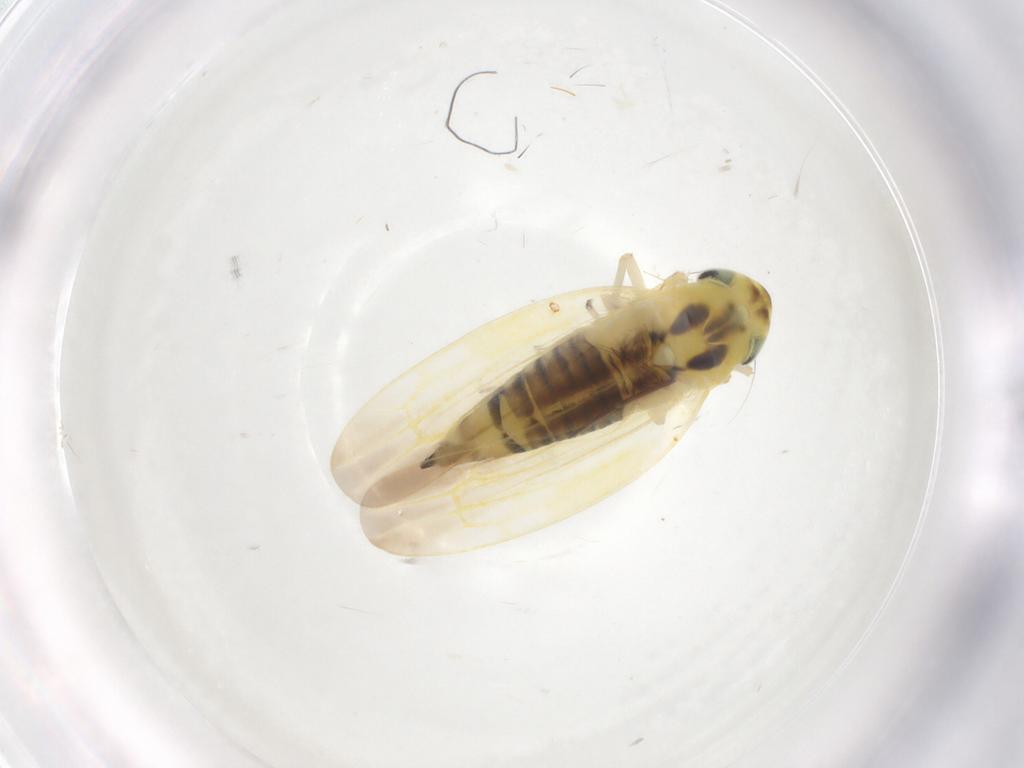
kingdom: Animalia
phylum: Arthropoda
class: Insecta
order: Hemiptera
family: Cicadellidae
